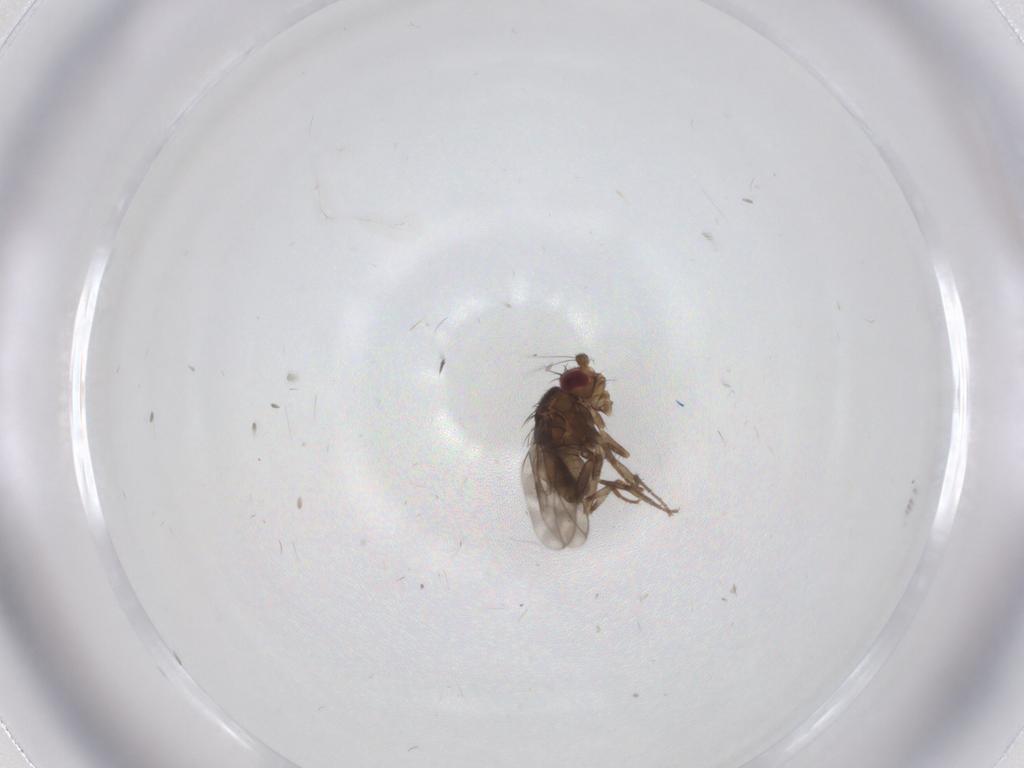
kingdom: Animalia
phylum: Arthropoda
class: Insecta
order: Diptera
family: Sphaeroceridae
